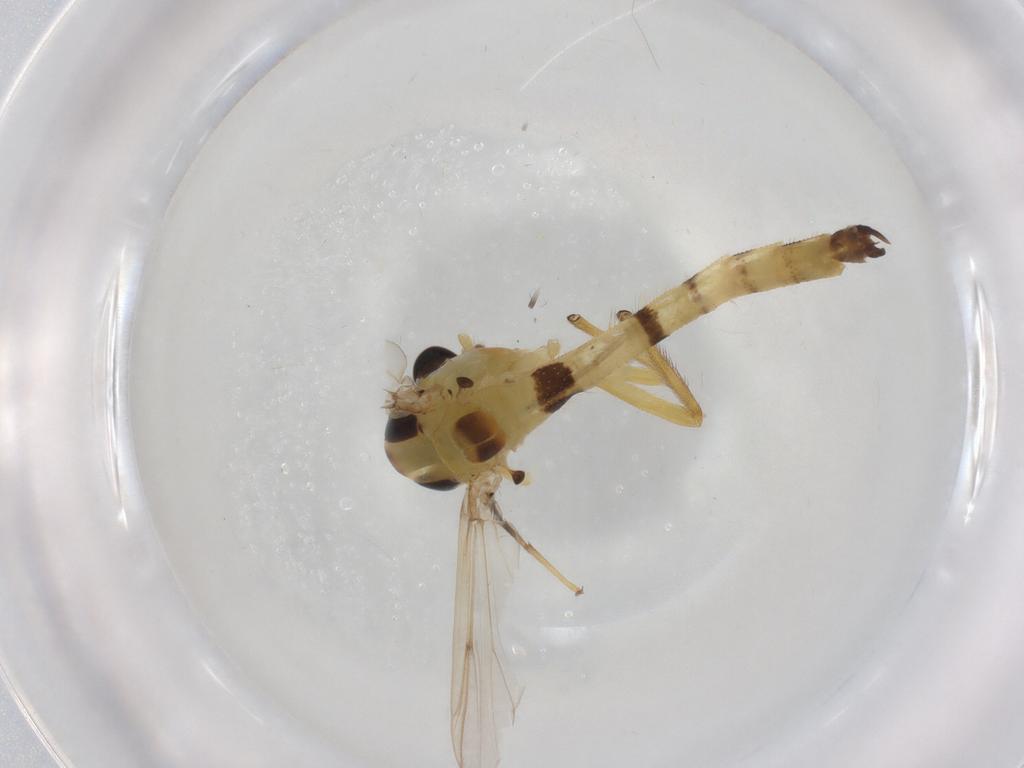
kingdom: Animalia
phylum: Arthropoda
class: Insecta
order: Diptera
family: Chironomidae
